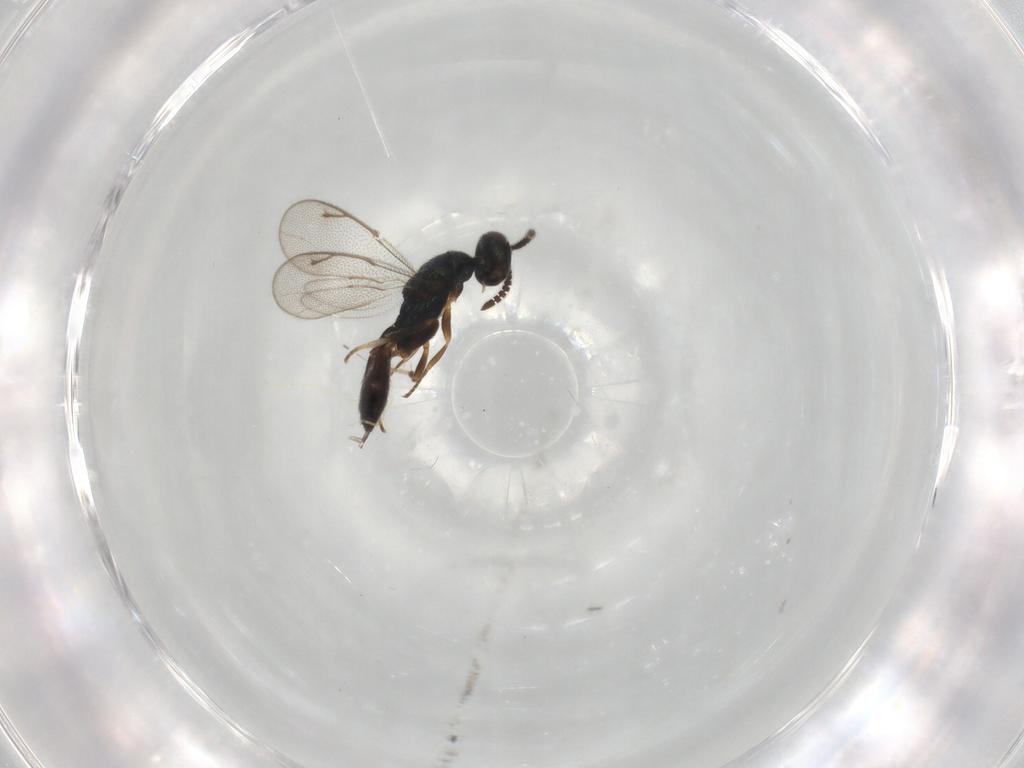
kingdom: Animalia
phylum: Arthropoda
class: Insecta
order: Hymenoptera
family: Cleonyminae
